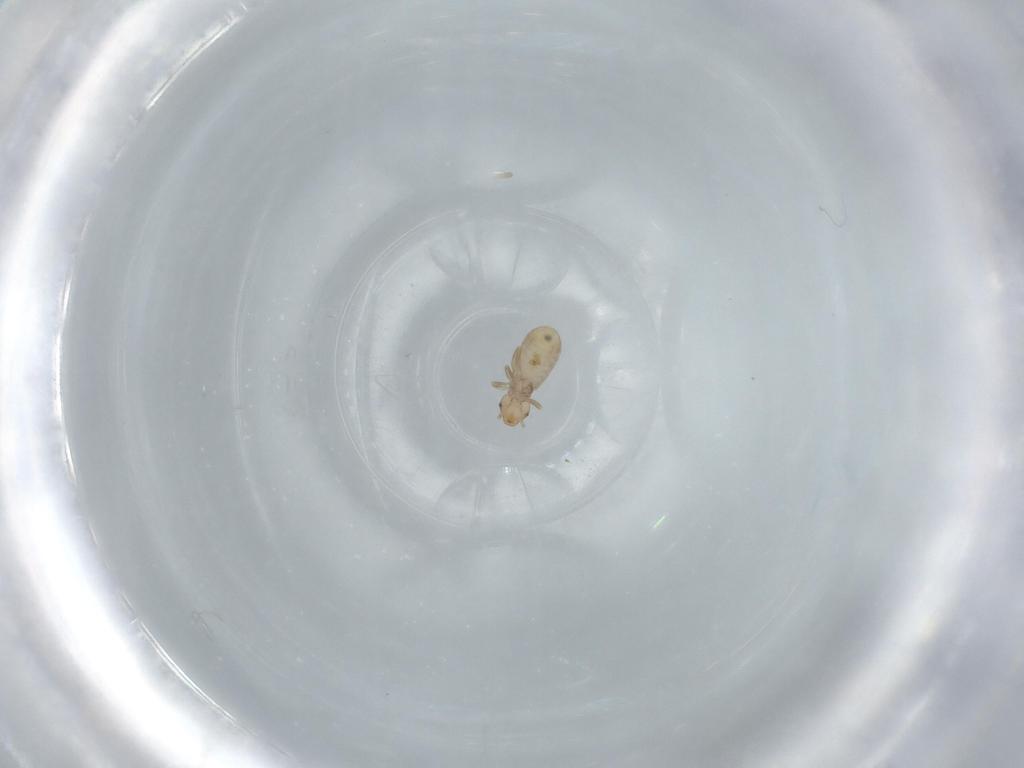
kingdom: Animalia
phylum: Arthropoda
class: Insecta
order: Psocodea
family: Liposcelididae
